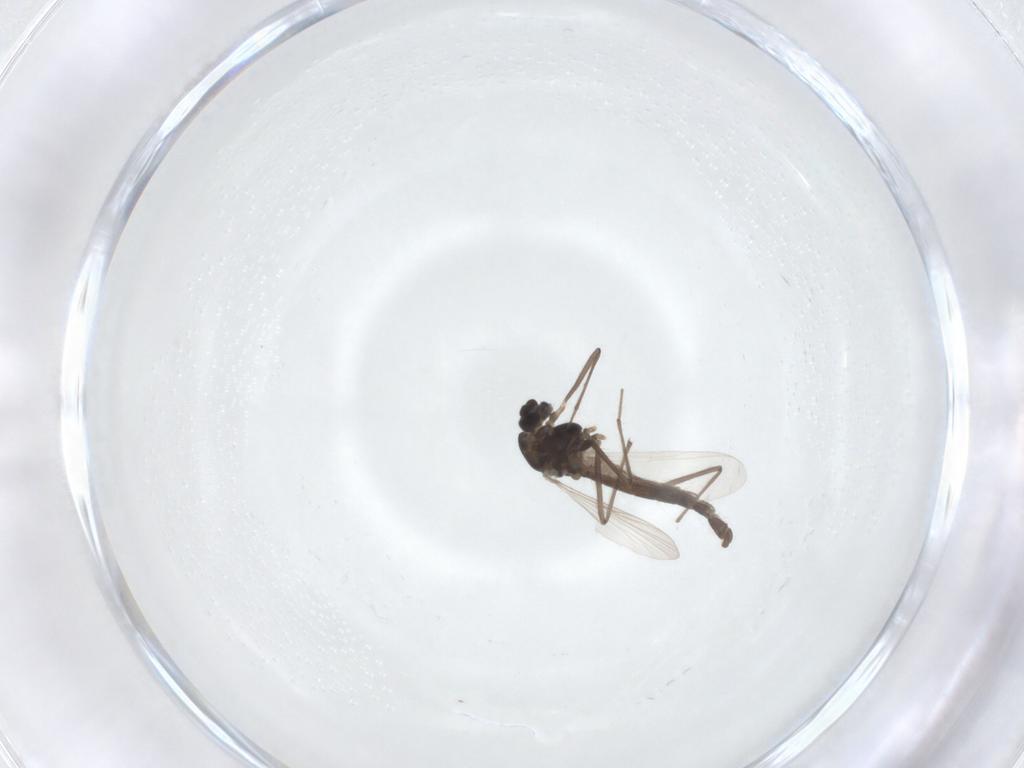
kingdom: Animalia
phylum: Arthropoda
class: Insecta
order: Diptera
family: Chironomidae
